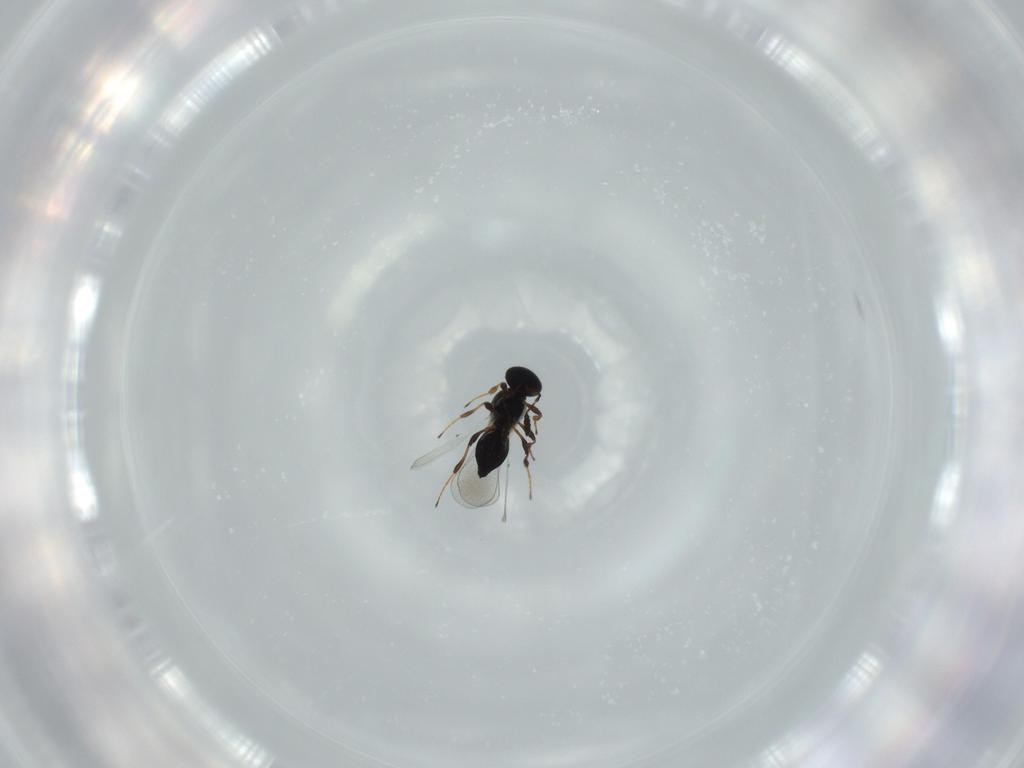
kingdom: Animalia
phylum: Arthropoda
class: Insecta
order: Hymenoptera
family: Platygastridae
